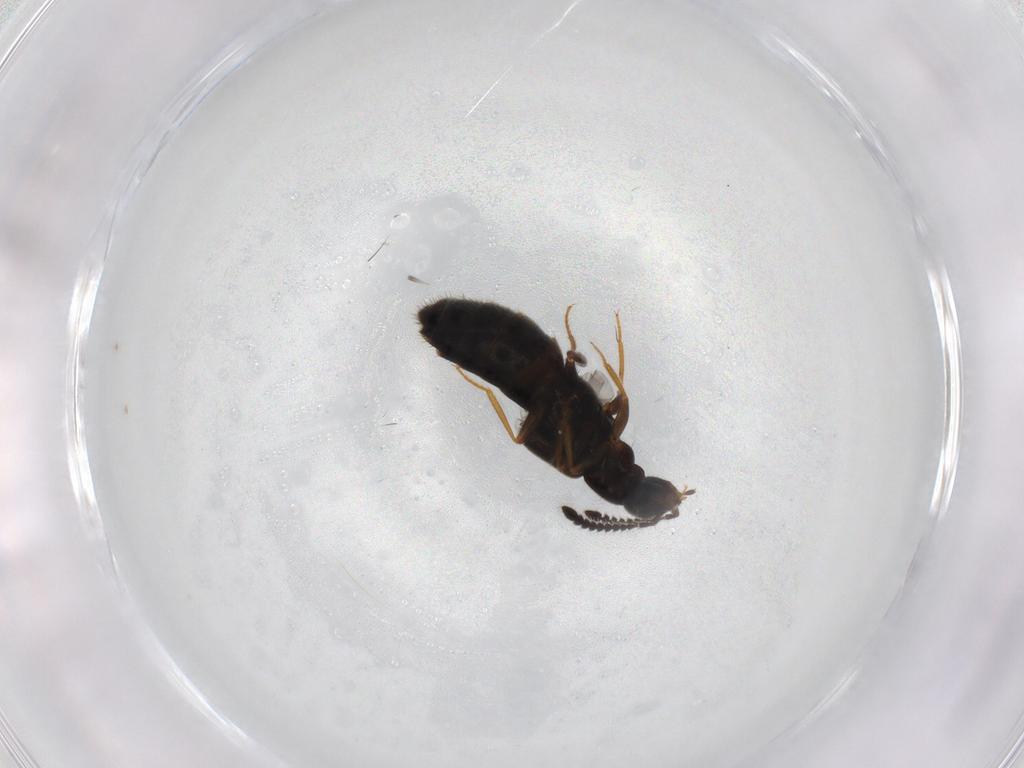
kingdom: Animalia
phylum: Arthropoda
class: Insecta
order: Coleoptera
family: Staphylinidae
